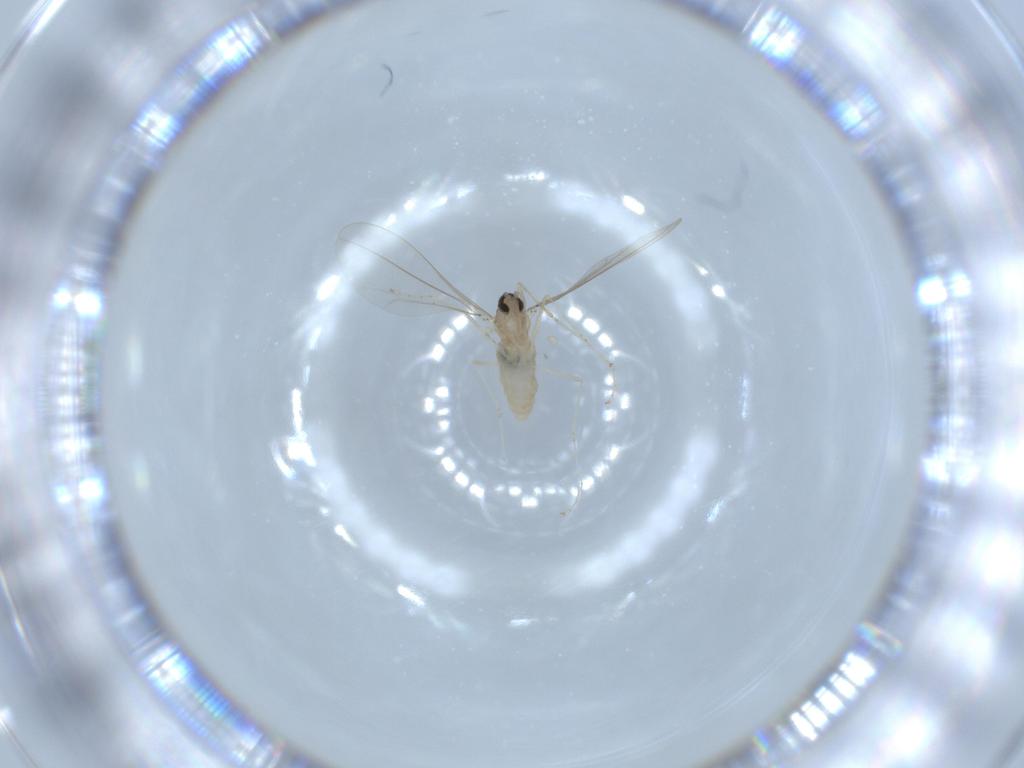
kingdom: Animalia
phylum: Arthropoda
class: Insecta
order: Diptera
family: Cecidomyiidae
